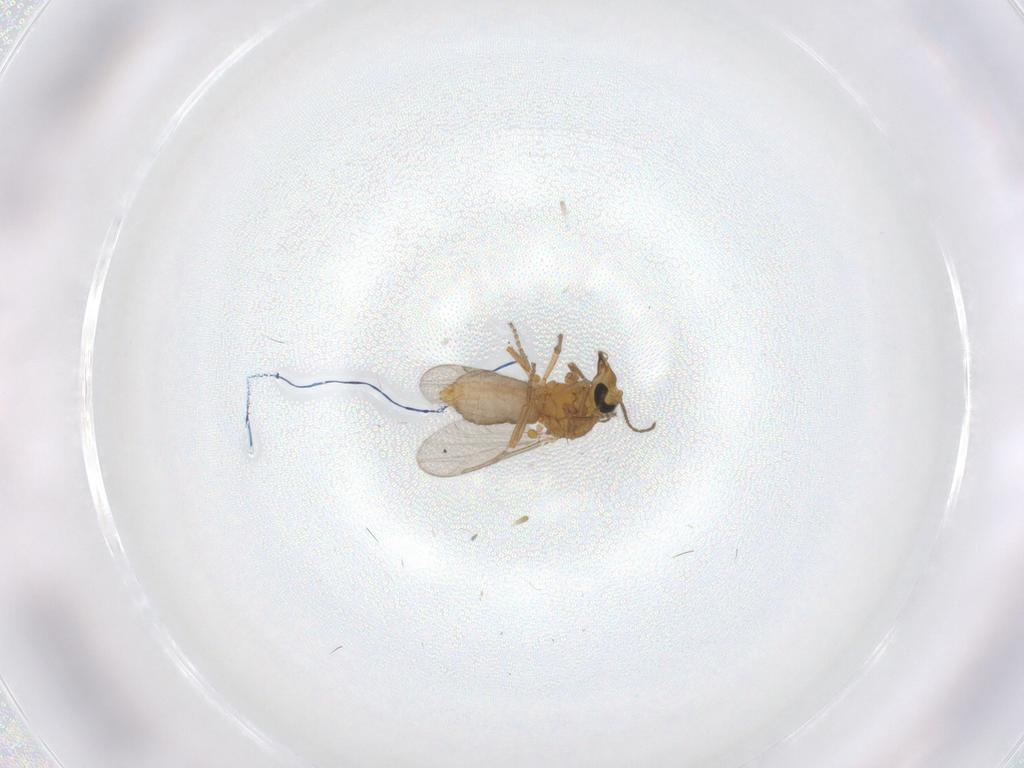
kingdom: Animalia
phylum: Arthropoda
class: Insecta
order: Diptera
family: Ceratopogonidae
